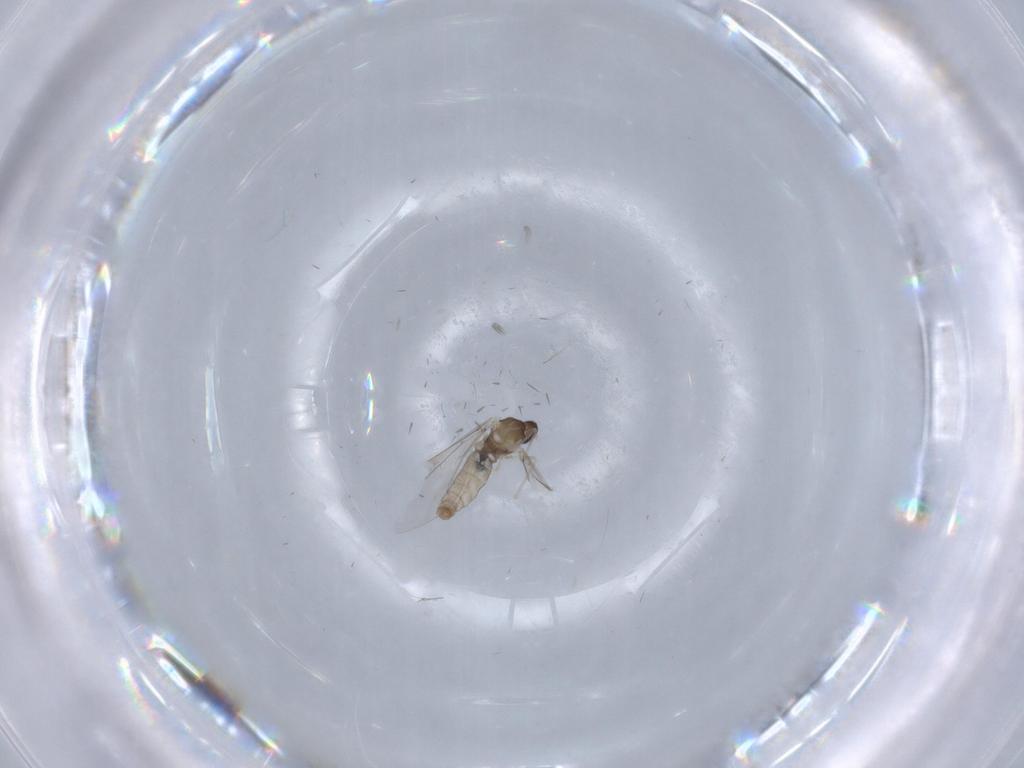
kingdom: Animalia
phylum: Arthropoda
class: Insecta
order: Diptera
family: Cecidomyiidae
